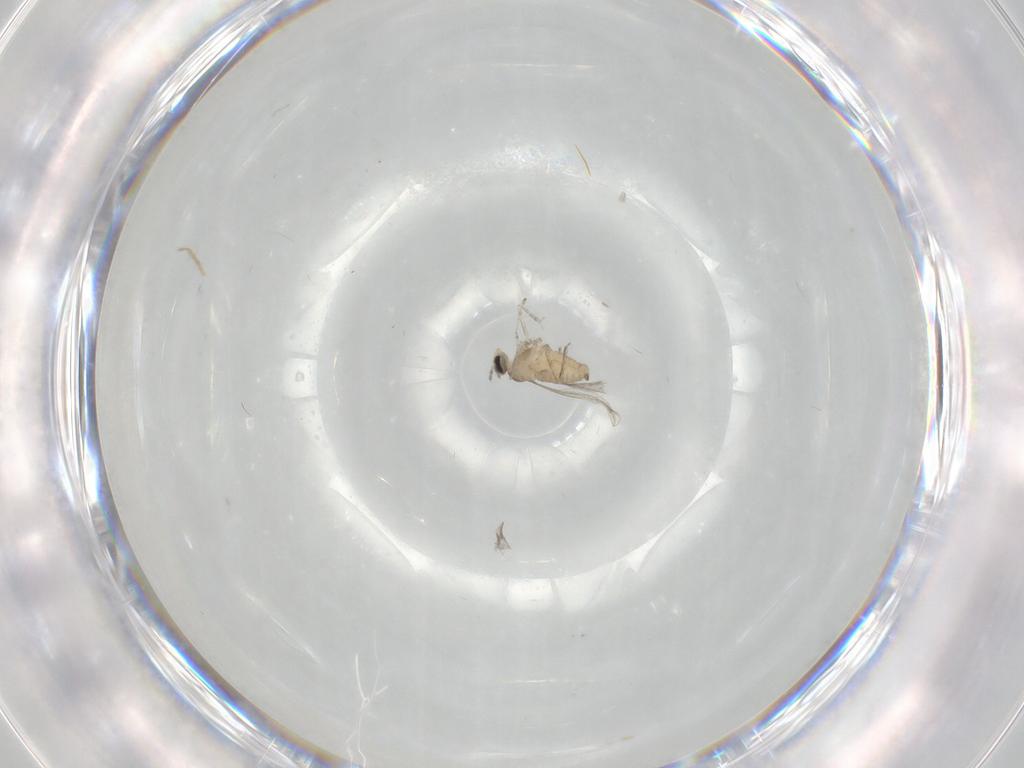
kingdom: Animalia
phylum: Arthropoda
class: Insecta
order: Diptera
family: Cecidomyiidae
